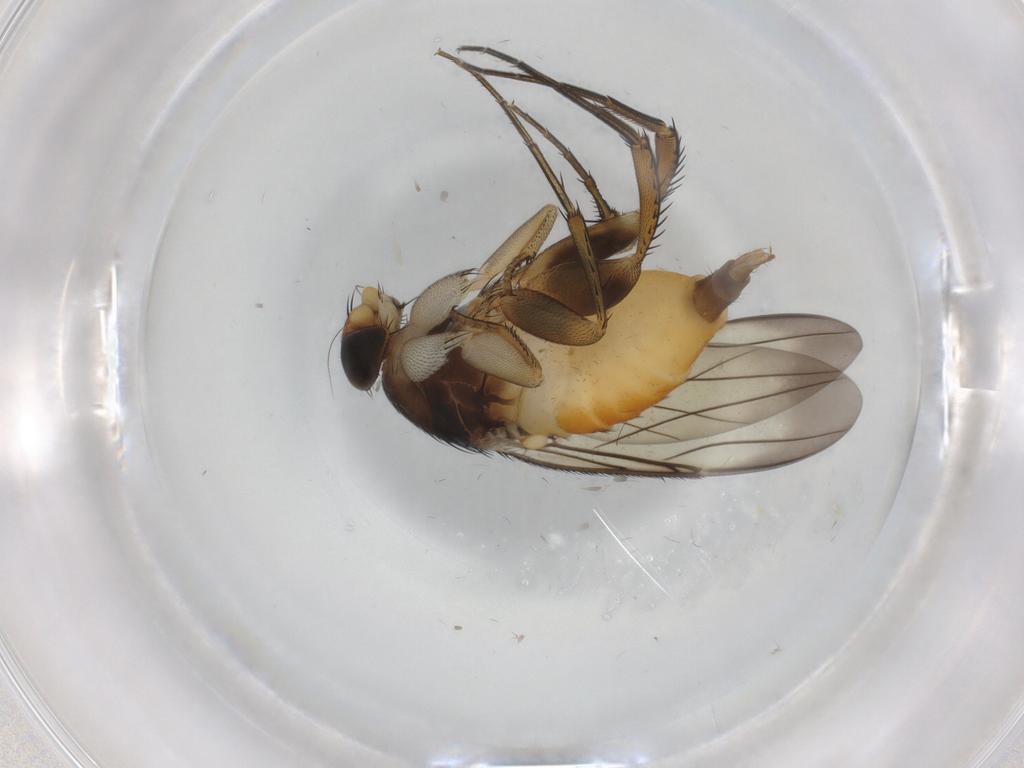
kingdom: Animalia
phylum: Arthropoda
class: Insecta
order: Diptera
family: Phoridae
